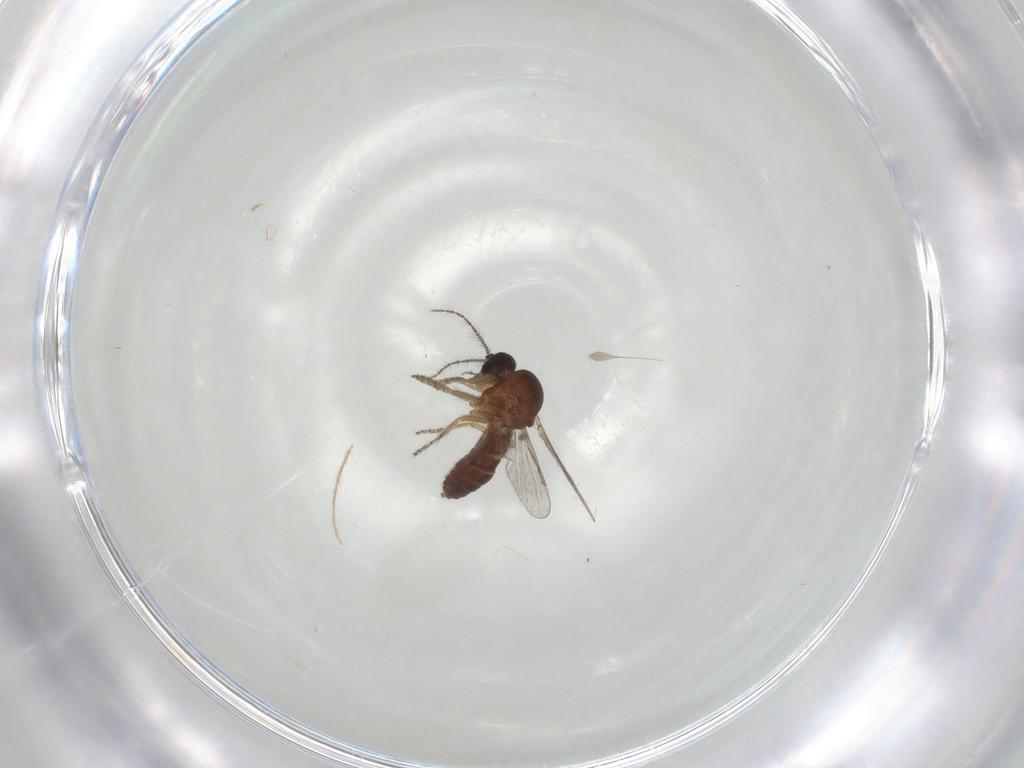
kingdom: Animalia
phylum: Arthropoda
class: Insecta
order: Diptera
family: Ceratopogonidae
